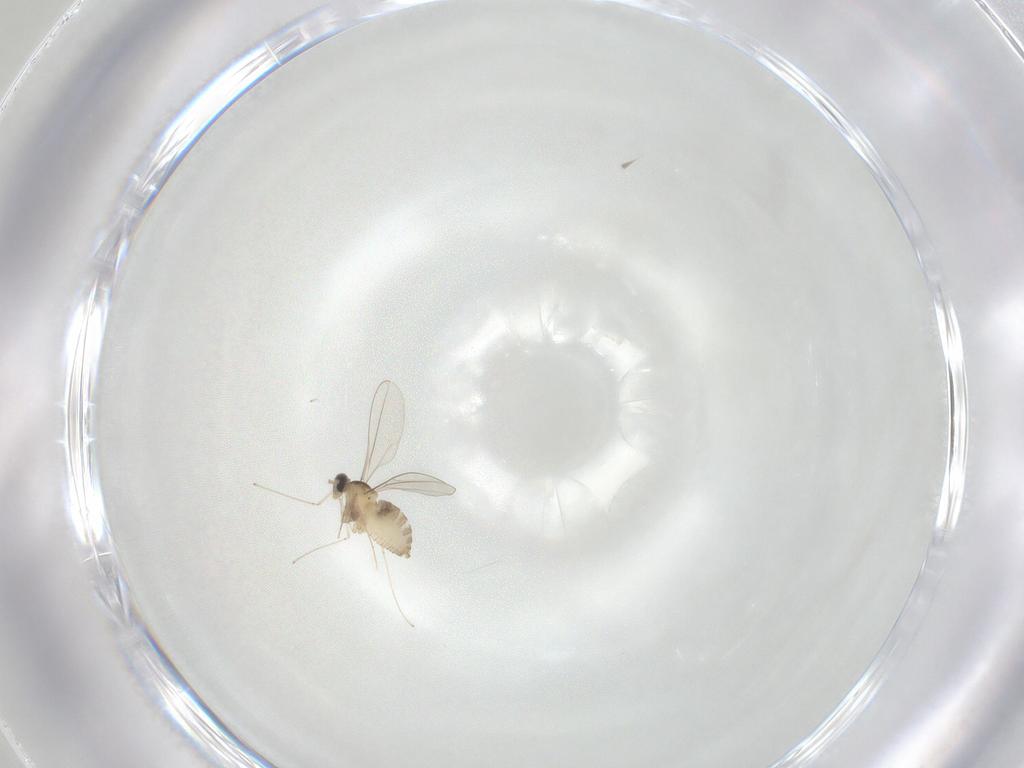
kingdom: Animalia
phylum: Arthropoda
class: Insecta
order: Diptera
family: Cecidomyiidae
